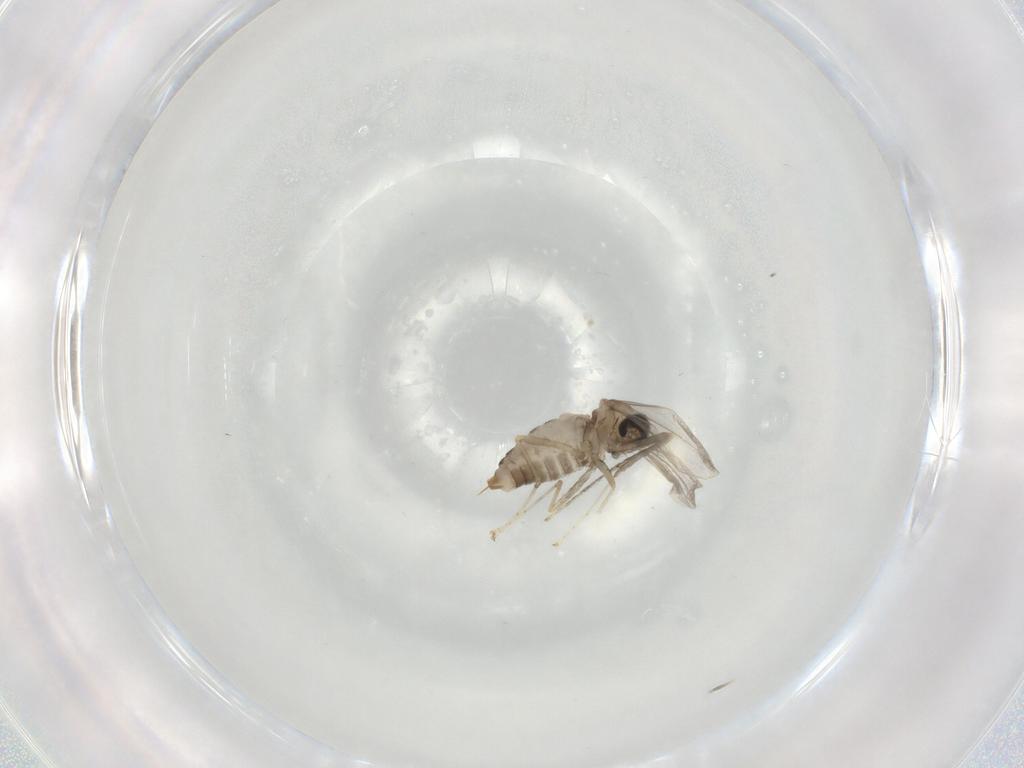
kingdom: Animalia
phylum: Arthropoda
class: Insecta
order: Diptera
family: Cecidomyiidae
